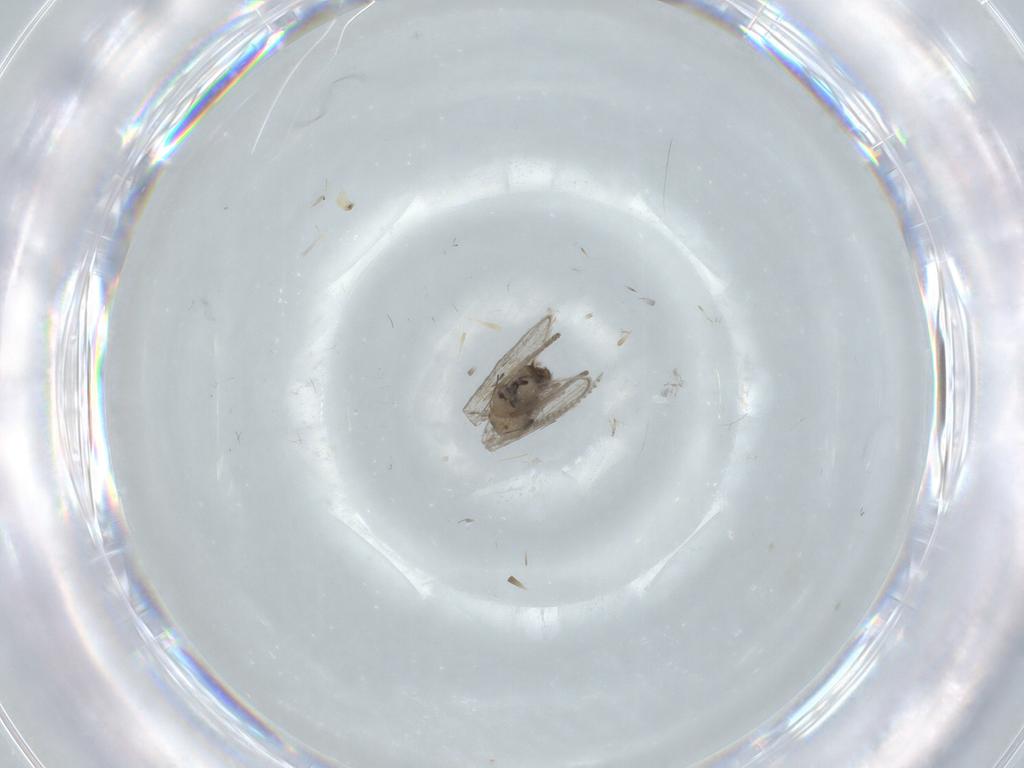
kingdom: Animalia
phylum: Arthropoda
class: Insecta
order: Diptera
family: Psychodidae
